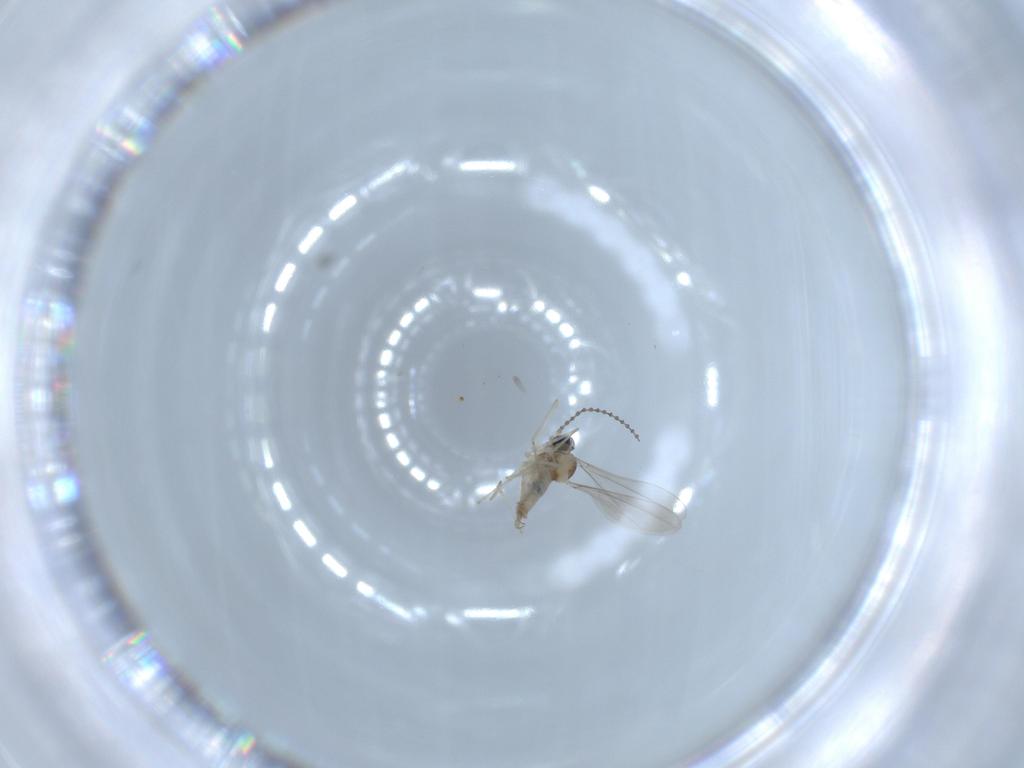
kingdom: Animalia
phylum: Arthropoda
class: Insecta
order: Diptera
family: Chironomidae
